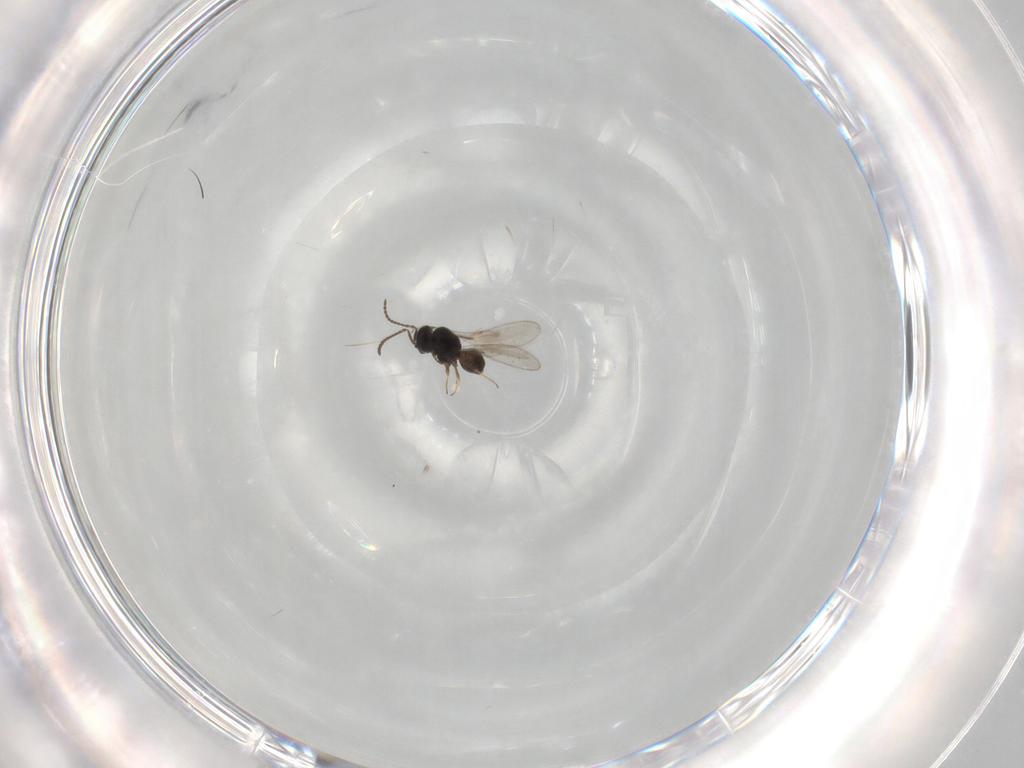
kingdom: Animalia
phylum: Arthropoda
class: Insecta
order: Hymenoptera
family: Scelionidae
